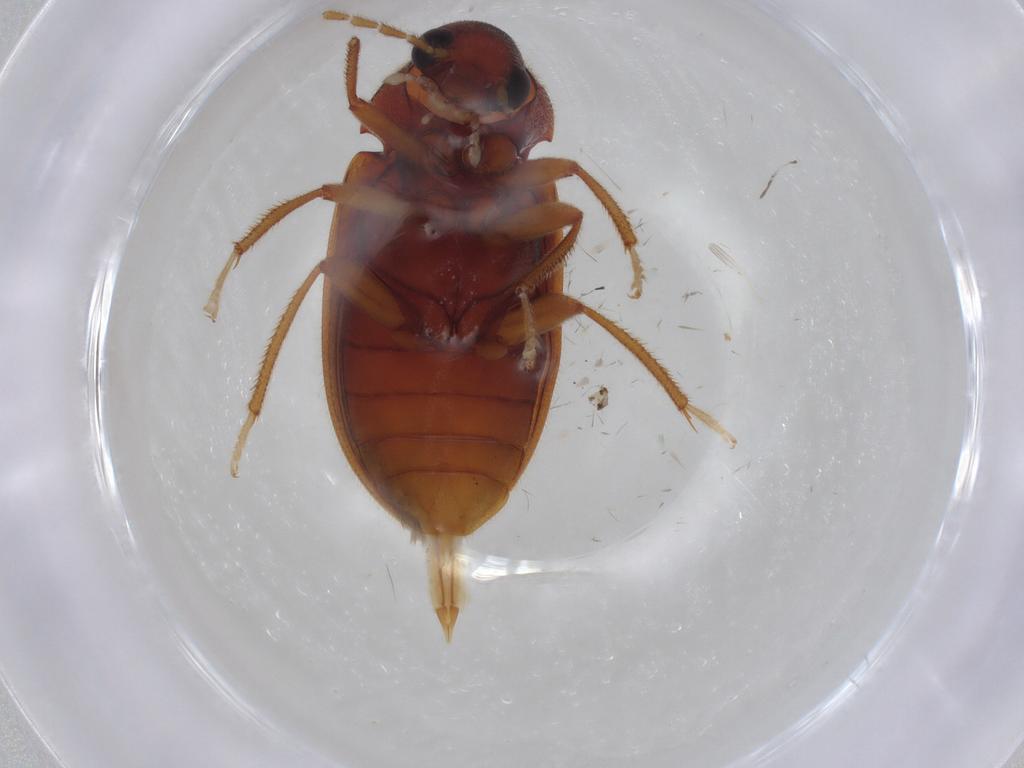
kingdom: Animalia
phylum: Arthropoda
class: Insecta
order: Coleoptera
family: Ptilodactylidae
